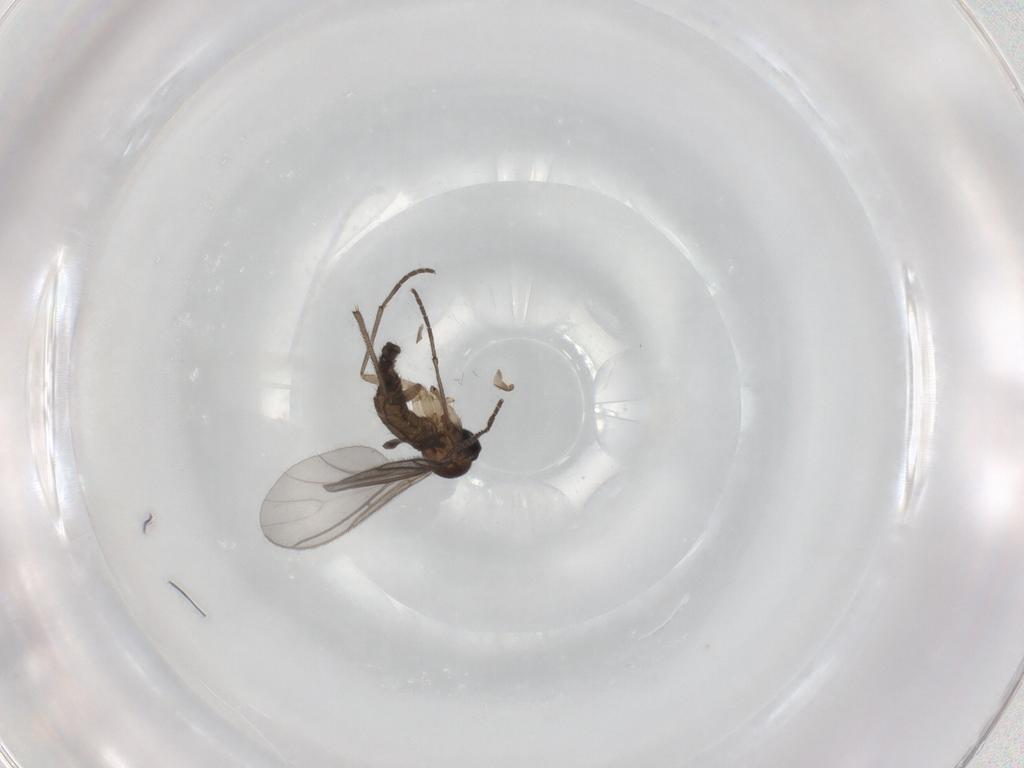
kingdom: Animalia
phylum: Arthropoda
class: Insecta
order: Diptera
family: Sciaridae
